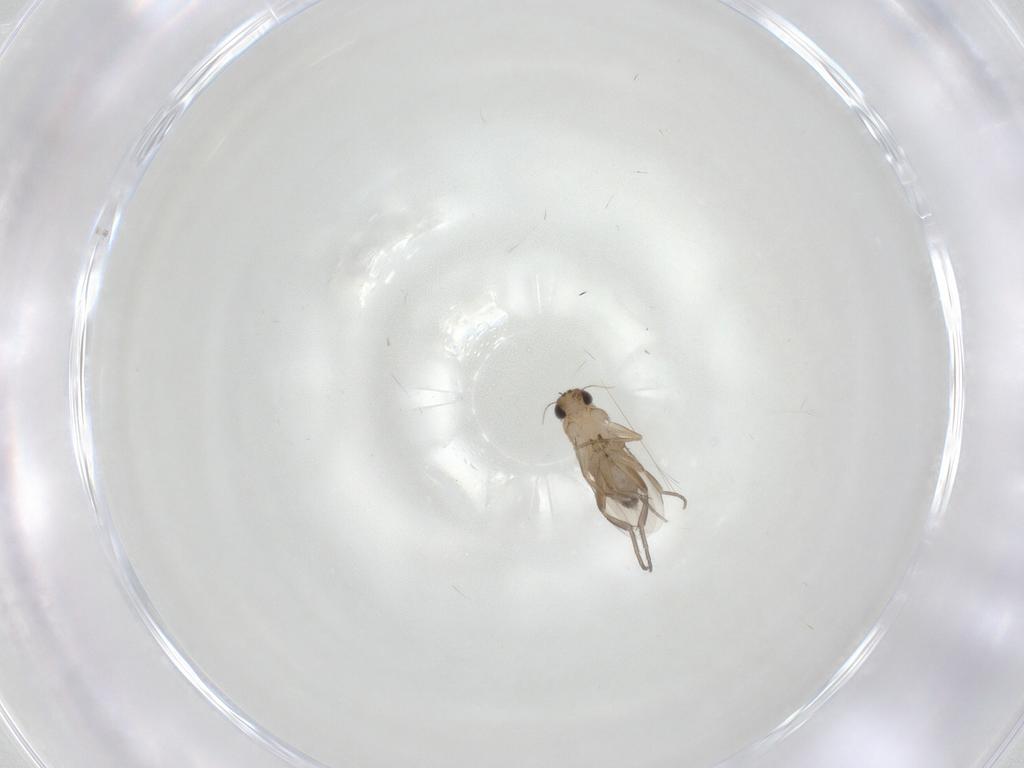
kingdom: Animalia
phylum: Arthropoda
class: Insecta
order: Diptera
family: Phoridae
